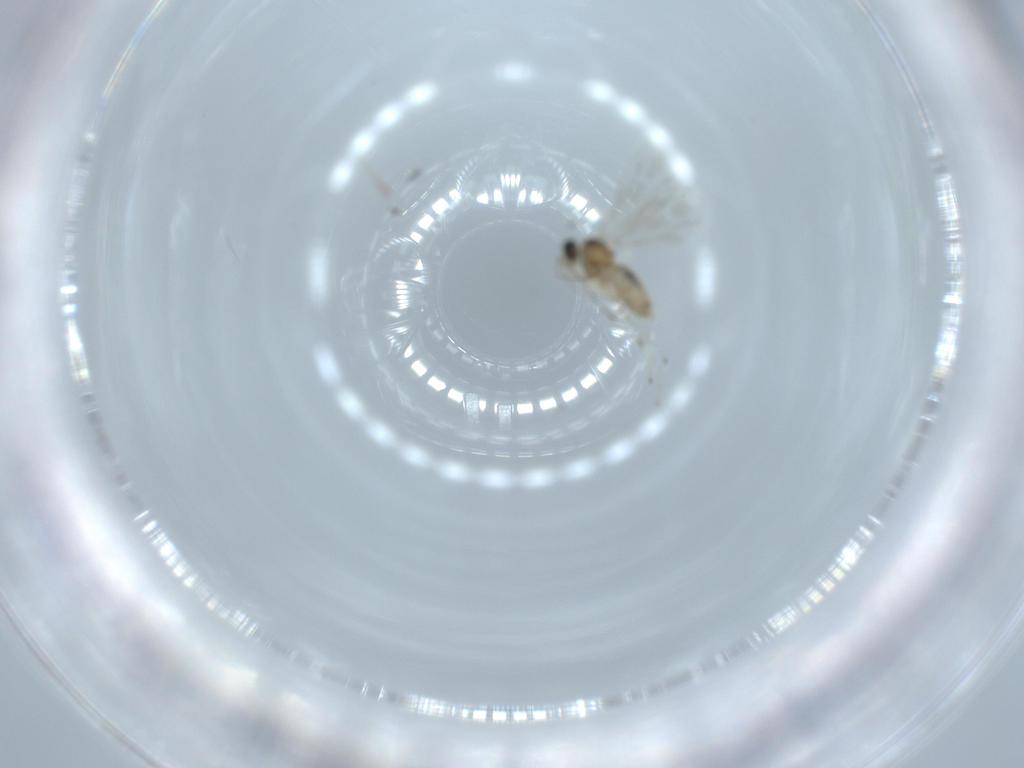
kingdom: Animalia
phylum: Arthropoda
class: Insecta
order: Diptera
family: Cecidomyiidae
